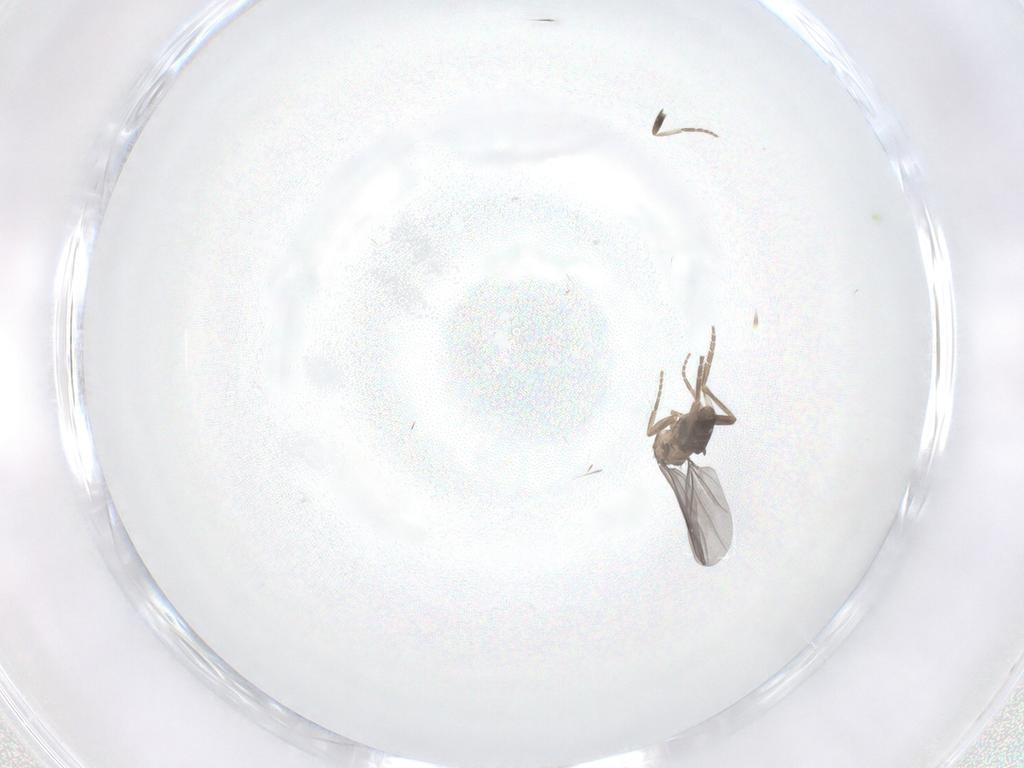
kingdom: Animalia
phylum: Arthropoda
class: Insecta
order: Diptera
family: Phoridae
